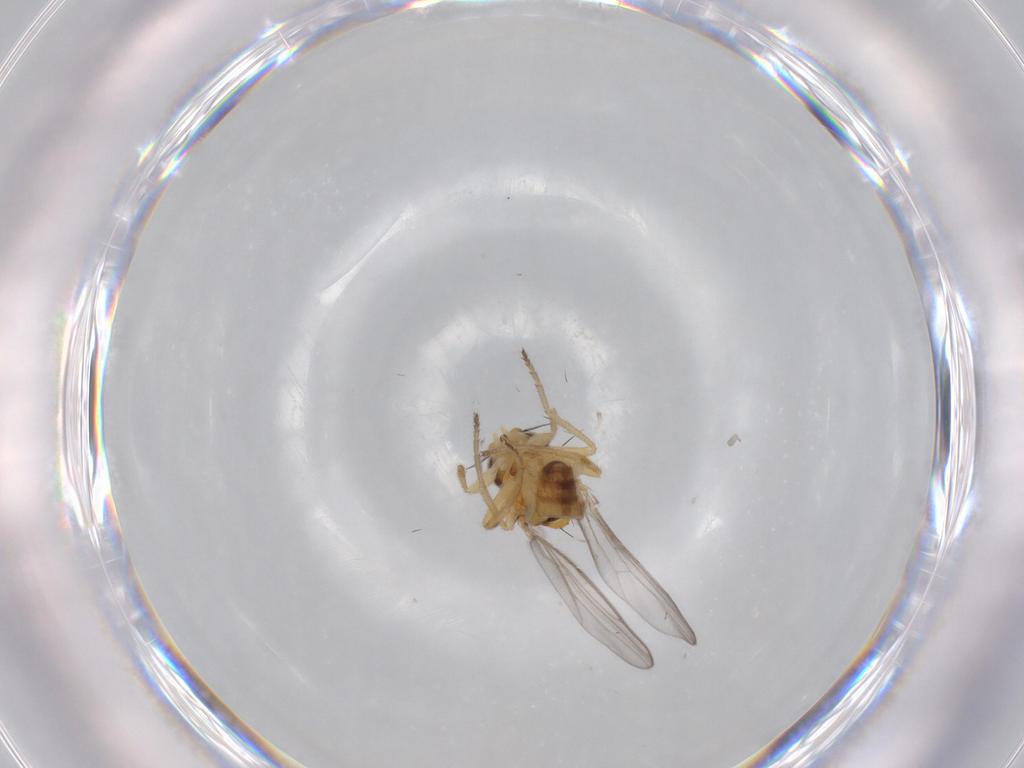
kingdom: Animalia
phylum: Arthropoda
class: Insecta
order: Diptera
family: Chloropidae
